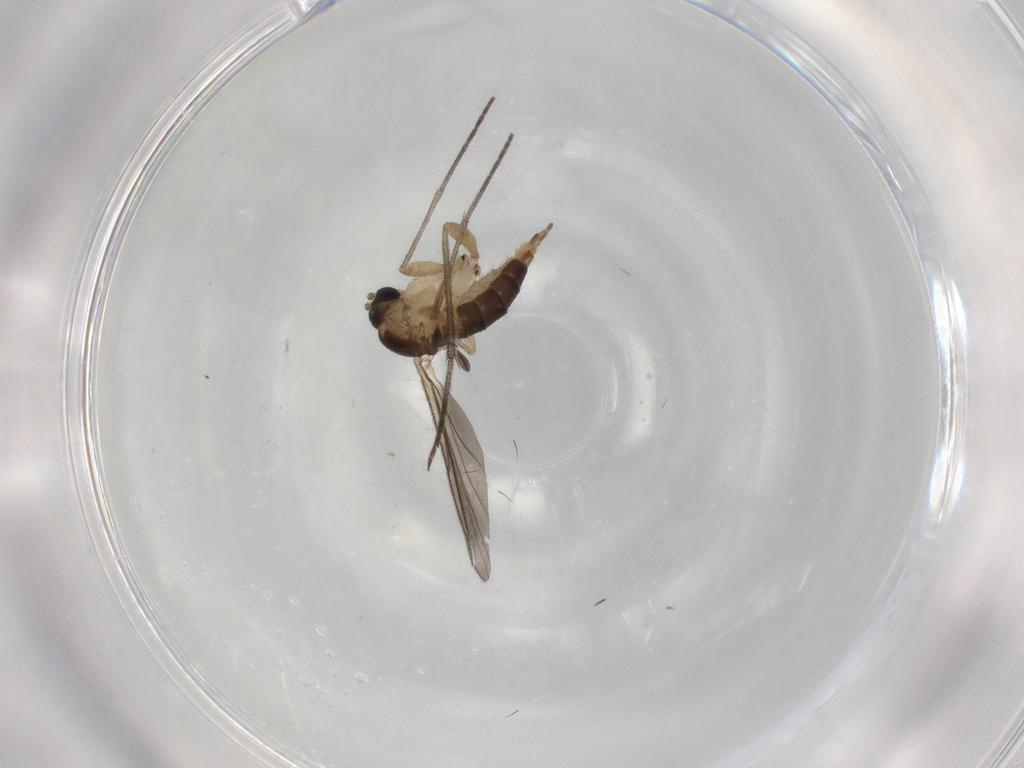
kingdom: Animalia
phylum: Arthropoda
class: Insecta
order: Diptera
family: Sciaridae
